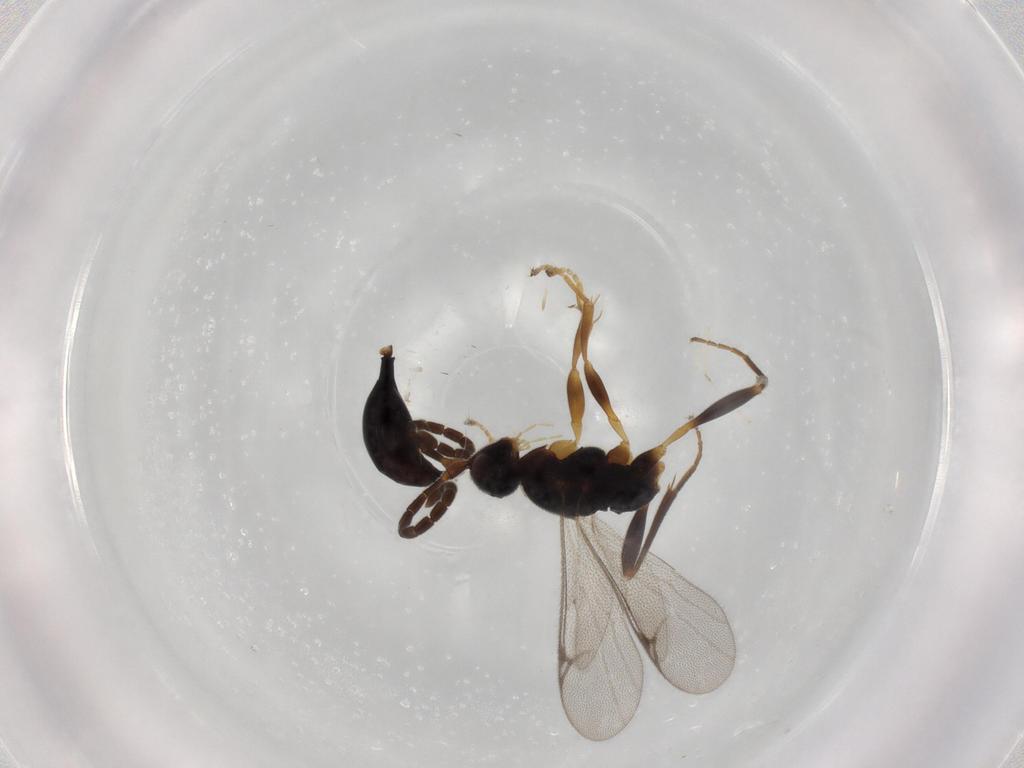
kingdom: Animalia
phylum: Arthropoda
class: Insecta
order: Hymenoptera
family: Proctotrupidae
